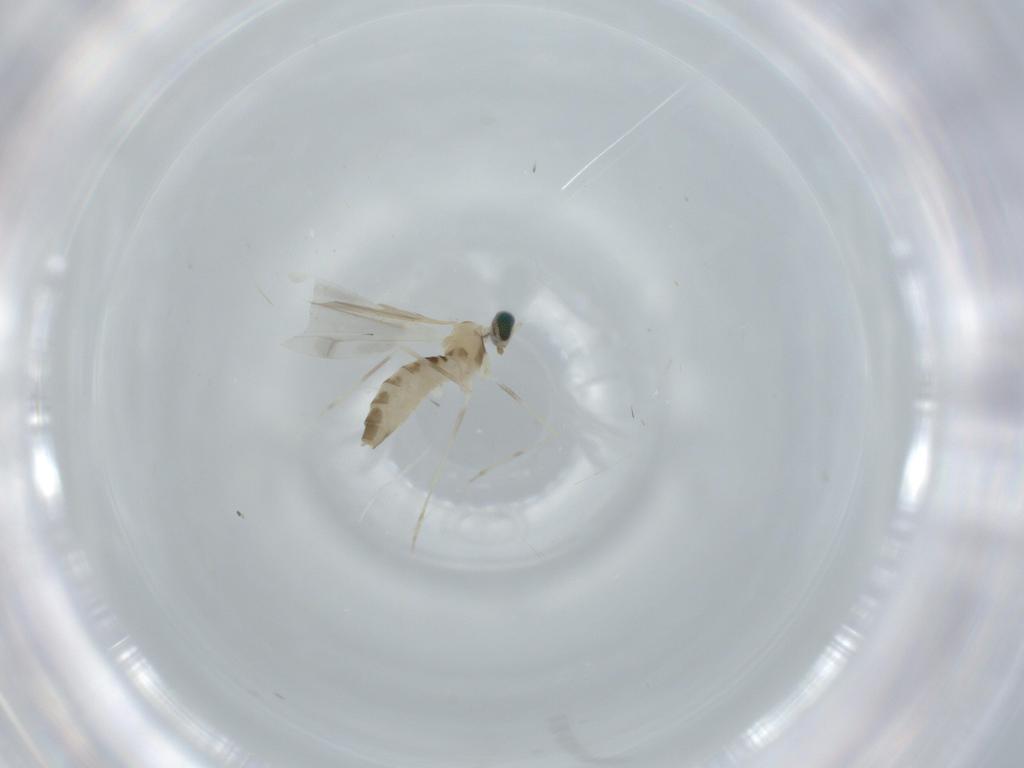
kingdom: Animalia
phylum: Arthropoda
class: Insecta
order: Diptera
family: Cecidomyiidae
